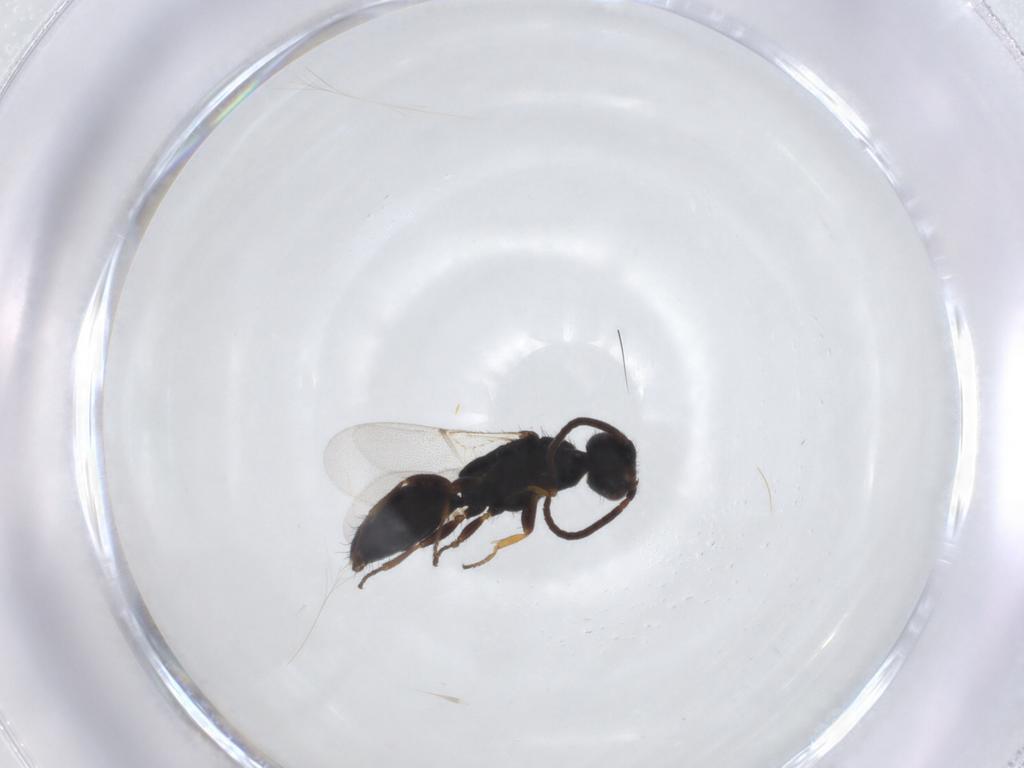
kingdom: Animalia
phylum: Arthropoda
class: Insecta
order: Hymenoptera
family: Bethylidae
